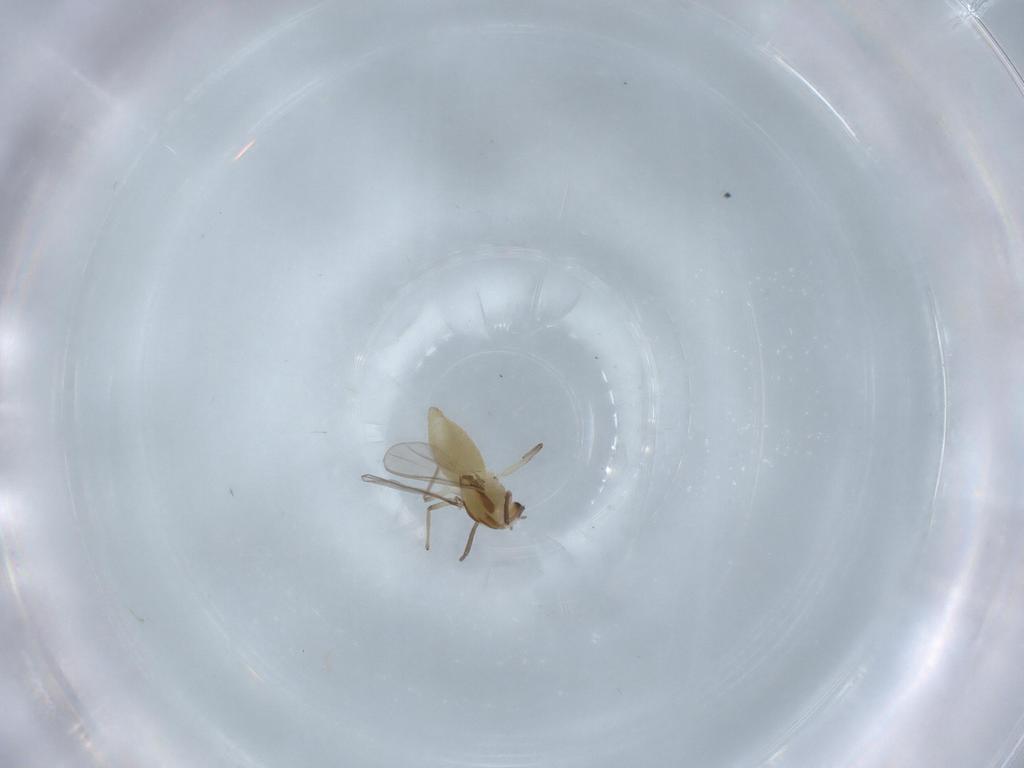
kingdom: Animalia
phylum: Arthropoda
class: Insecta
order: Diptera
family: Chironomidae
